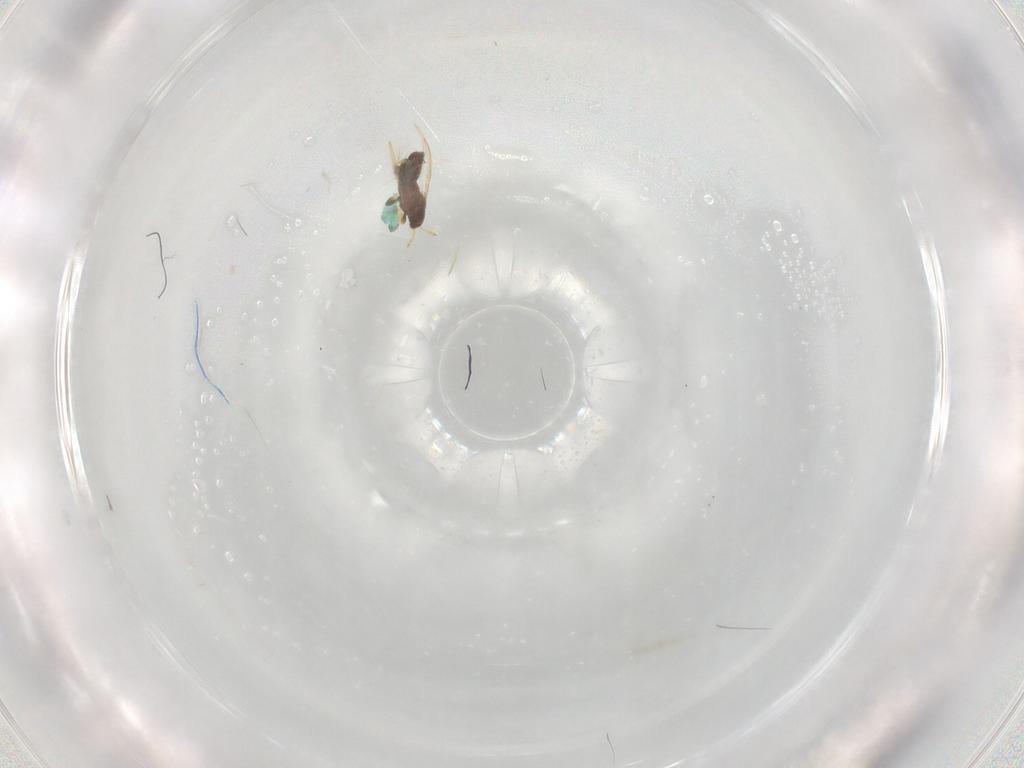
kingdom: Animalia
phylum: Arthropoda
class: Insecta
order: Thysanoptera
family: Thripidae
